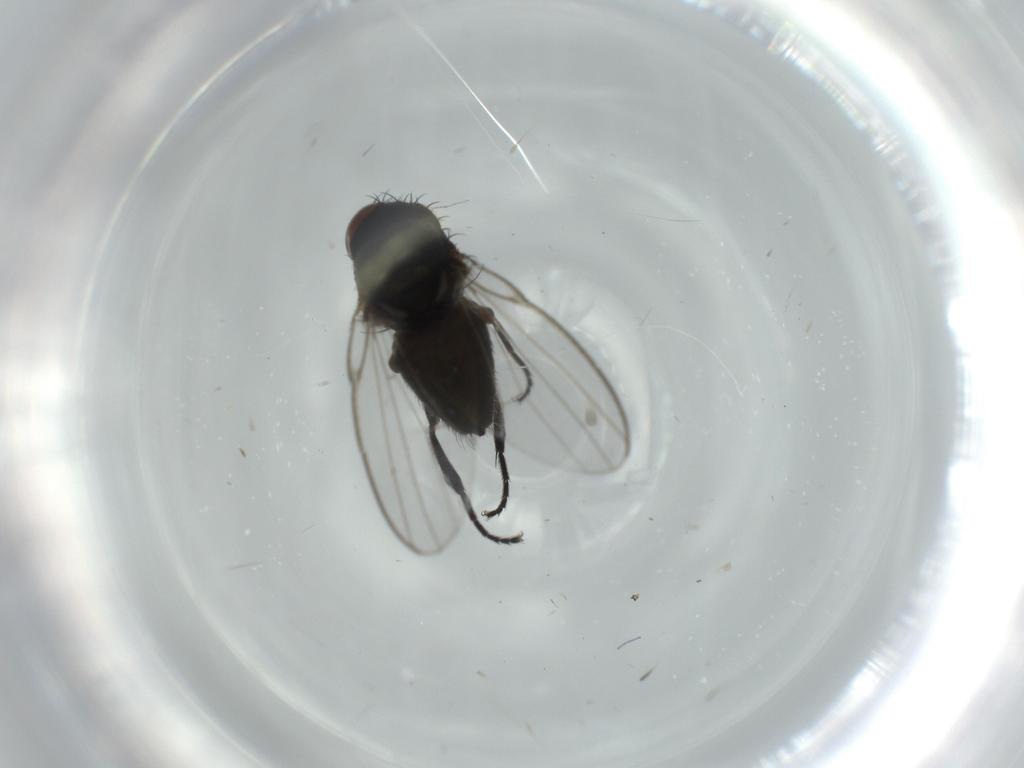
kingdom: Animalia
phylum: Arthropoda
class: Insecta
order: Diptera
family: Milichiidae
